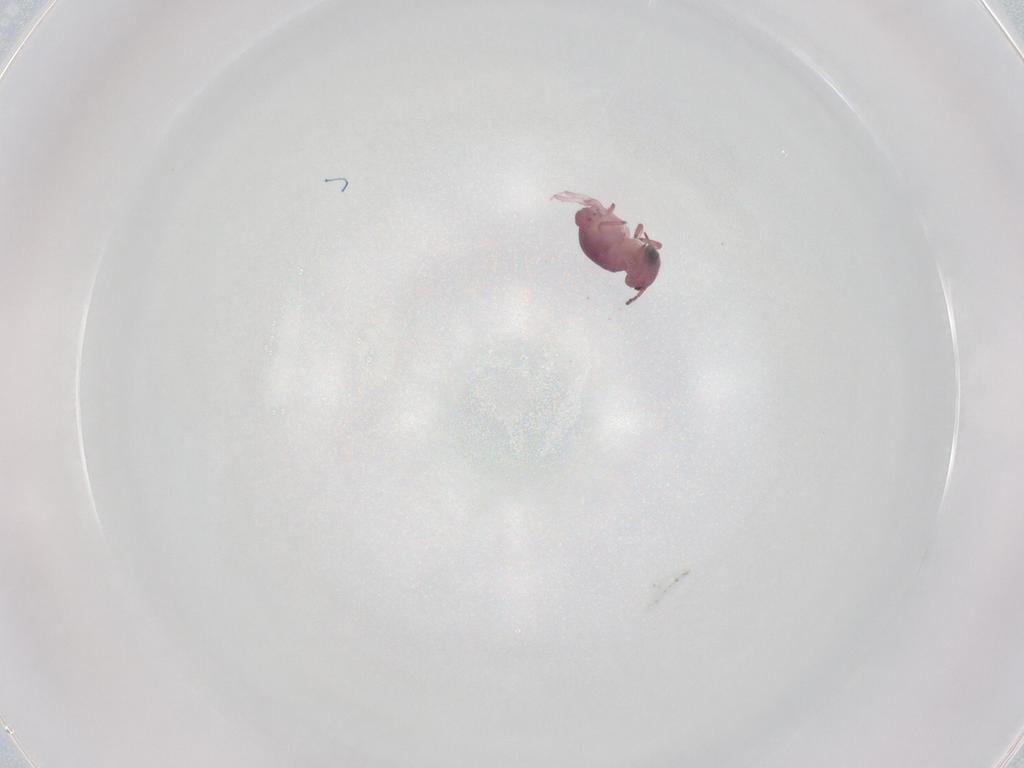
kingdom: Animalia
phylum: Arthropoda
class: Collembola
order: Symphypleona
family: Sminthurididae
